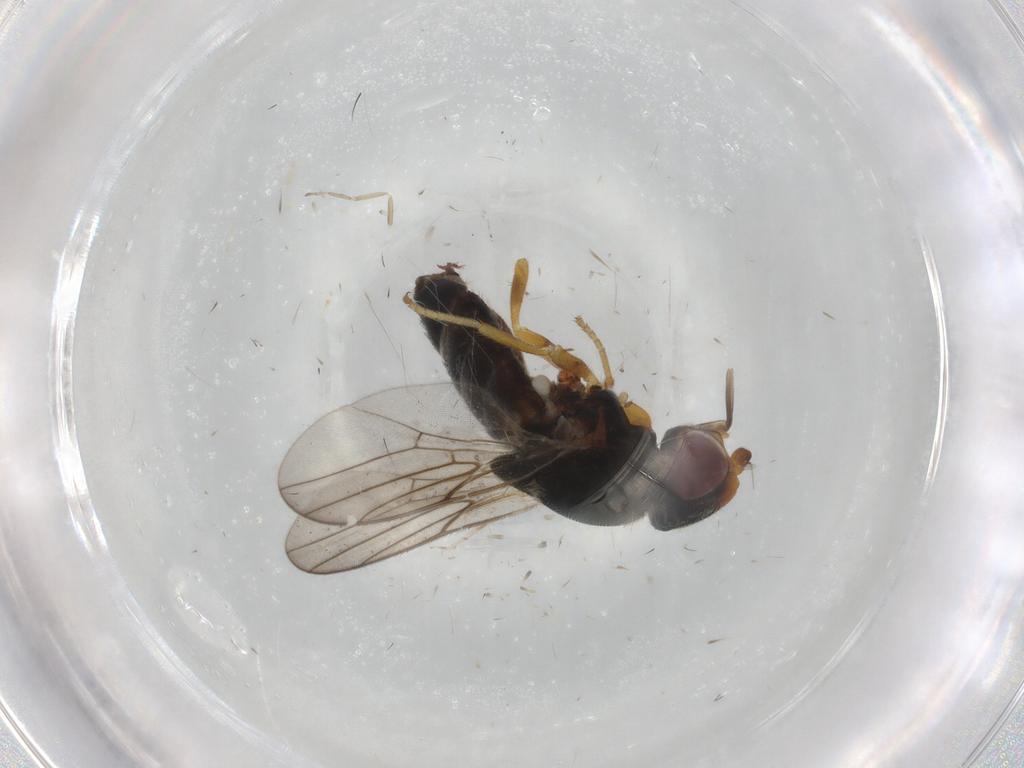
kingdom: Animalia
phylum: Arthropoda
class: Insecta
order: Diptera
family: Chloropidae
